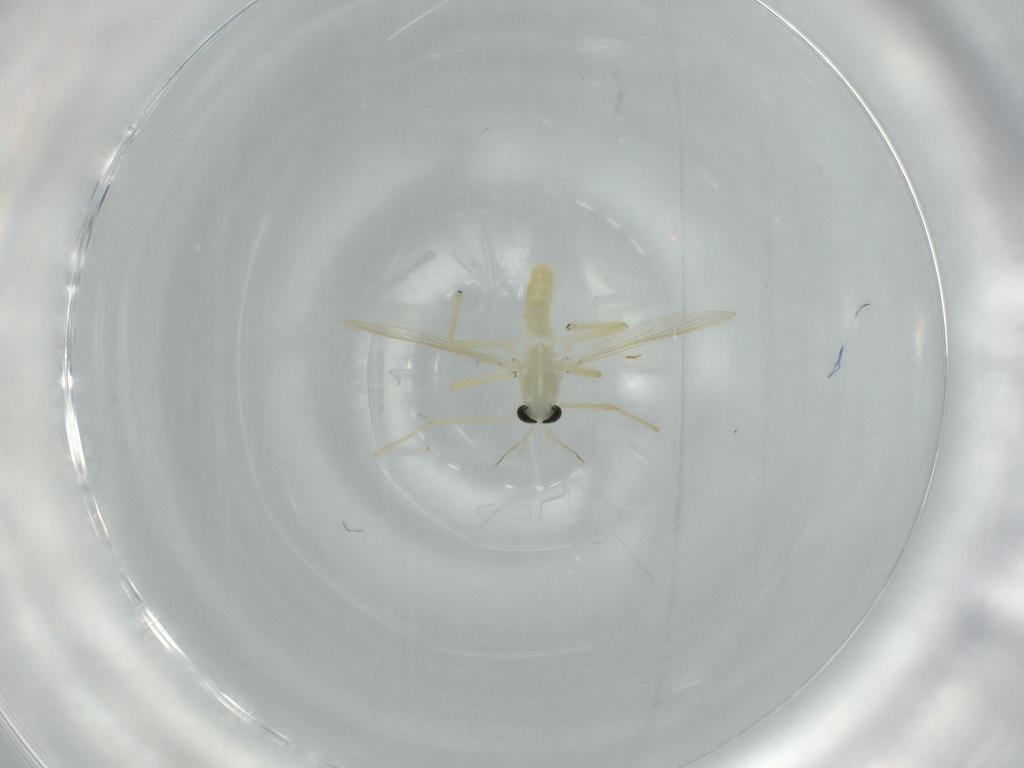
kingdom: Animalia
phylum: Arthropoda
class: Insecta
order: Diptera
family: Chironomidae
